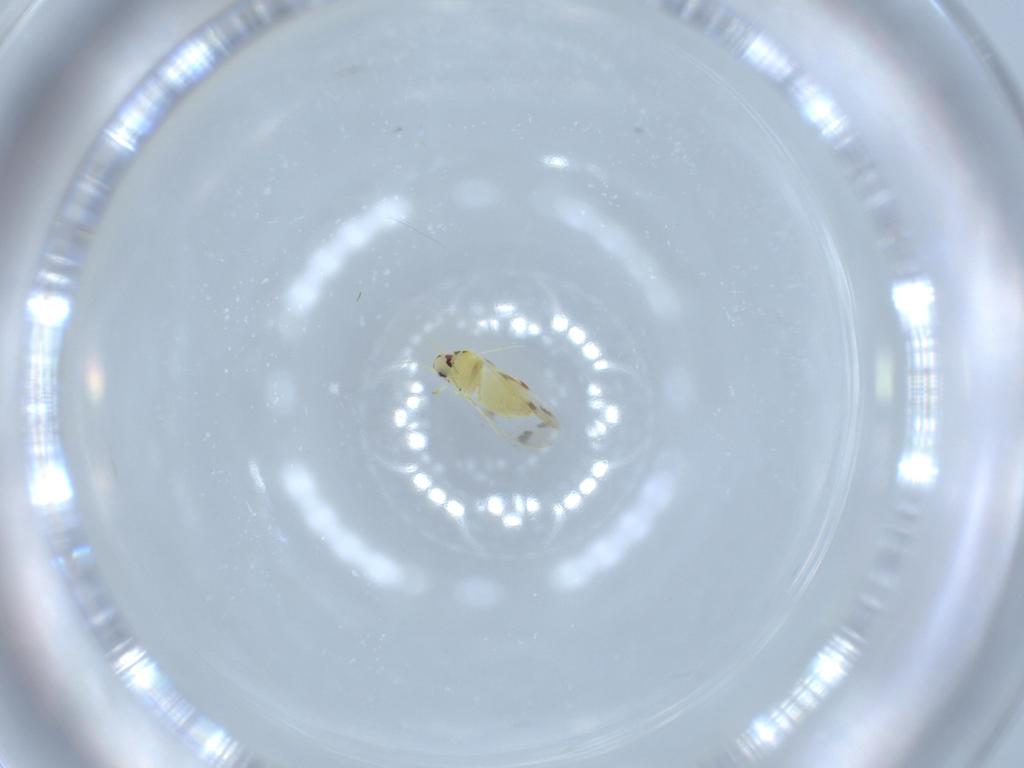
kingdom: Animalia
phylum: Arthropoda
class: Insecta
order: Hemiptera
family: Aleyrodidae
